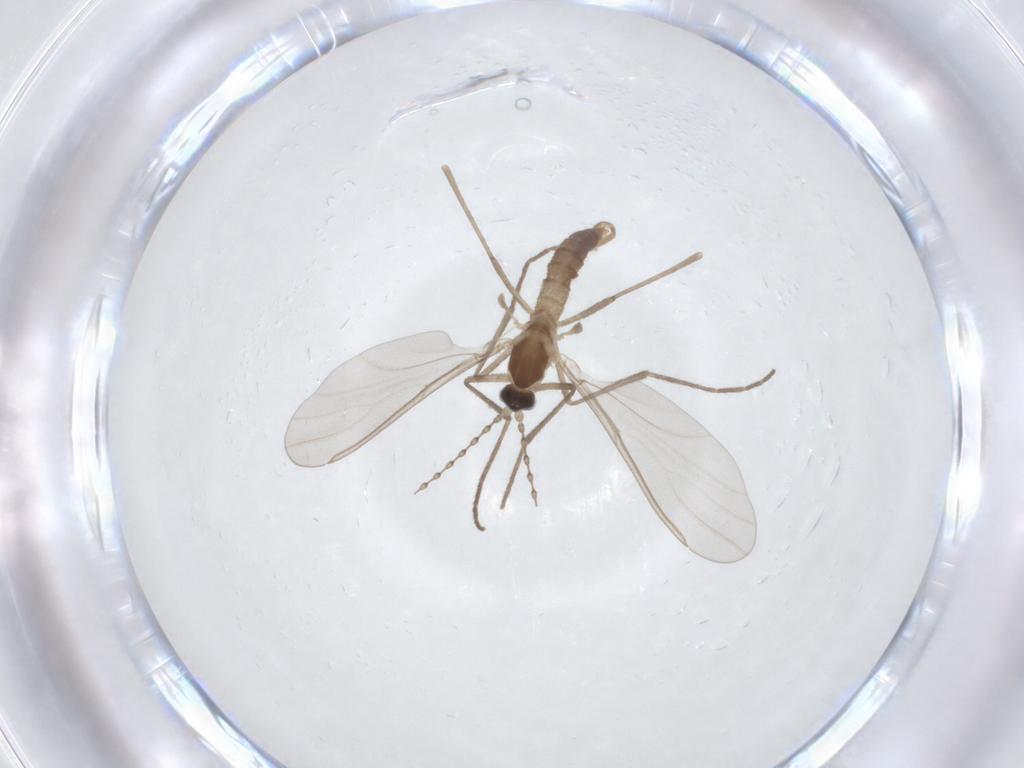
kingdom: Animalia
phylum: Arthropoda
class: Insecta
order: Diptera
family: Cecidomyiidae
